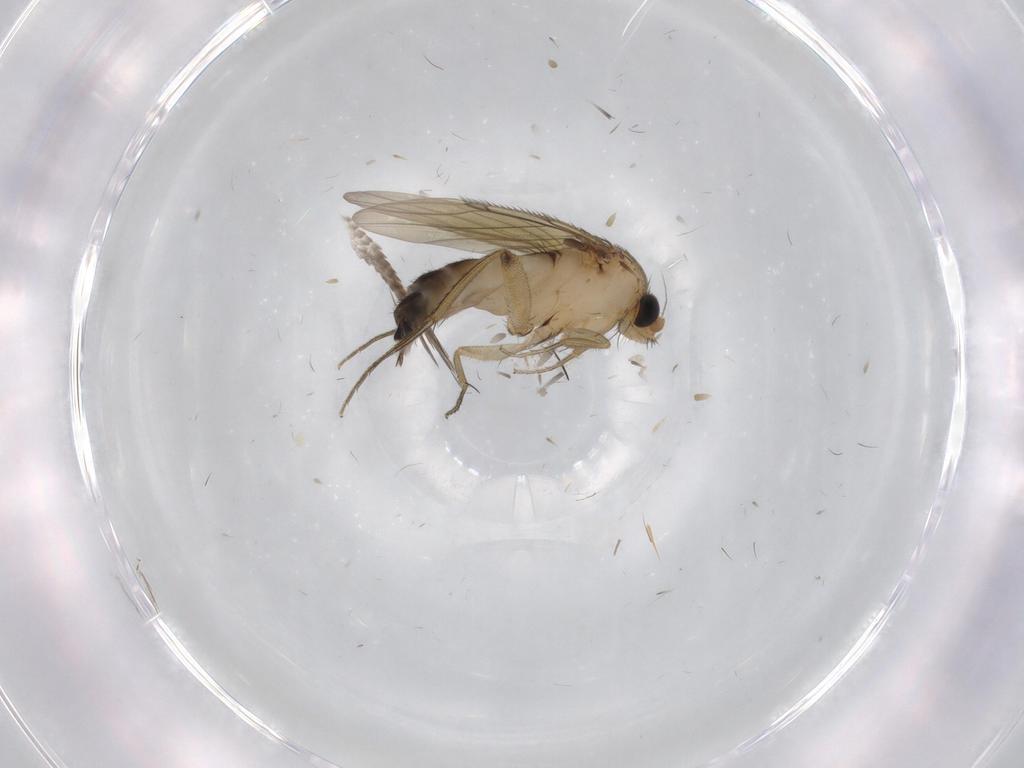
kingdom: Animalia
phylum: Arthropoda
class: Insecta
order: Diptera
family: Phoridae
